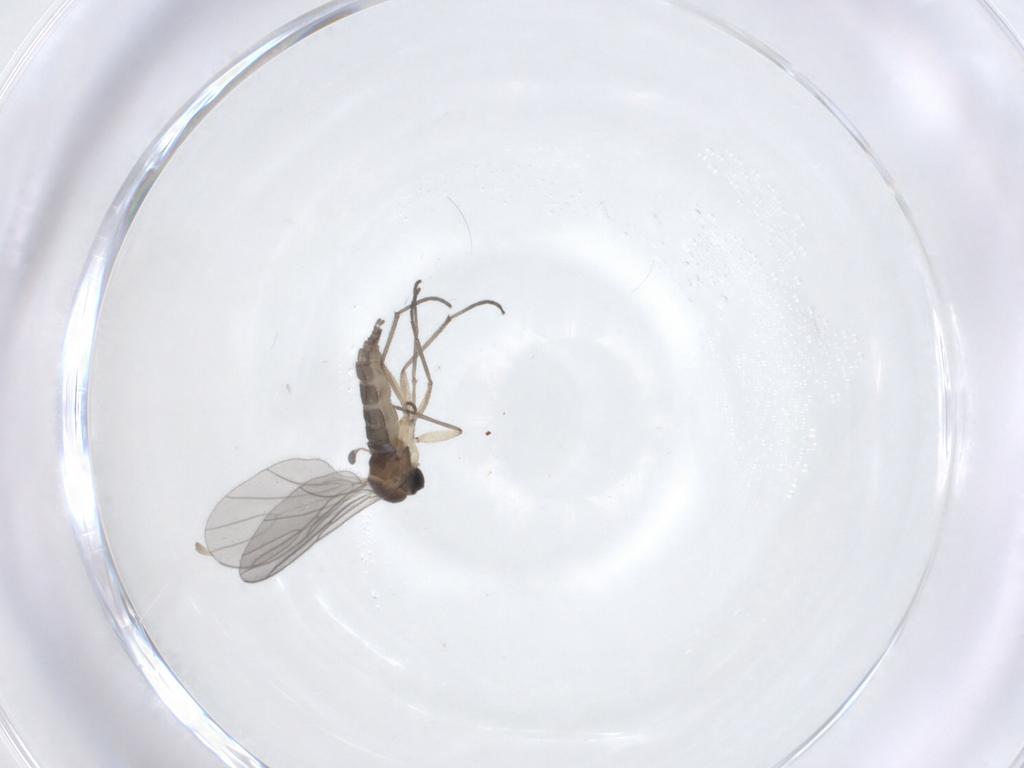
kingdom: Animalia
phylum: Arthropoda
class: Insecta
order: Diptera
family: Sciaridae
